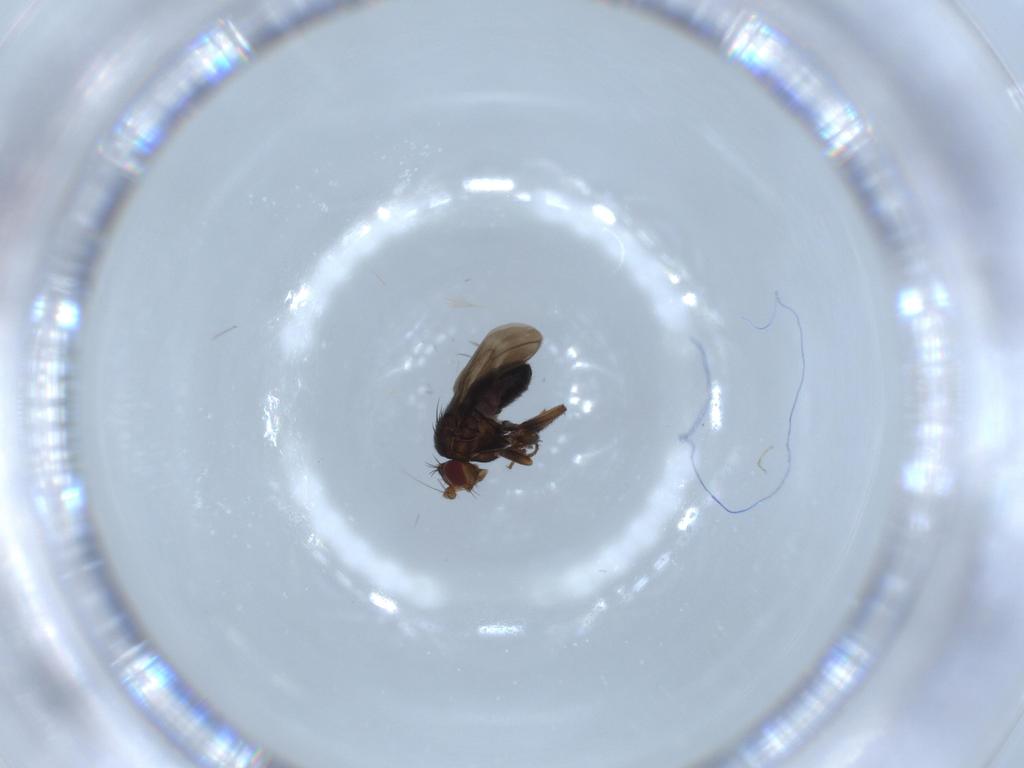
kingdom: Animalia
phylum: Arthropoda
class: Insecta
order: Diptera
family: Sphaeroceridae
